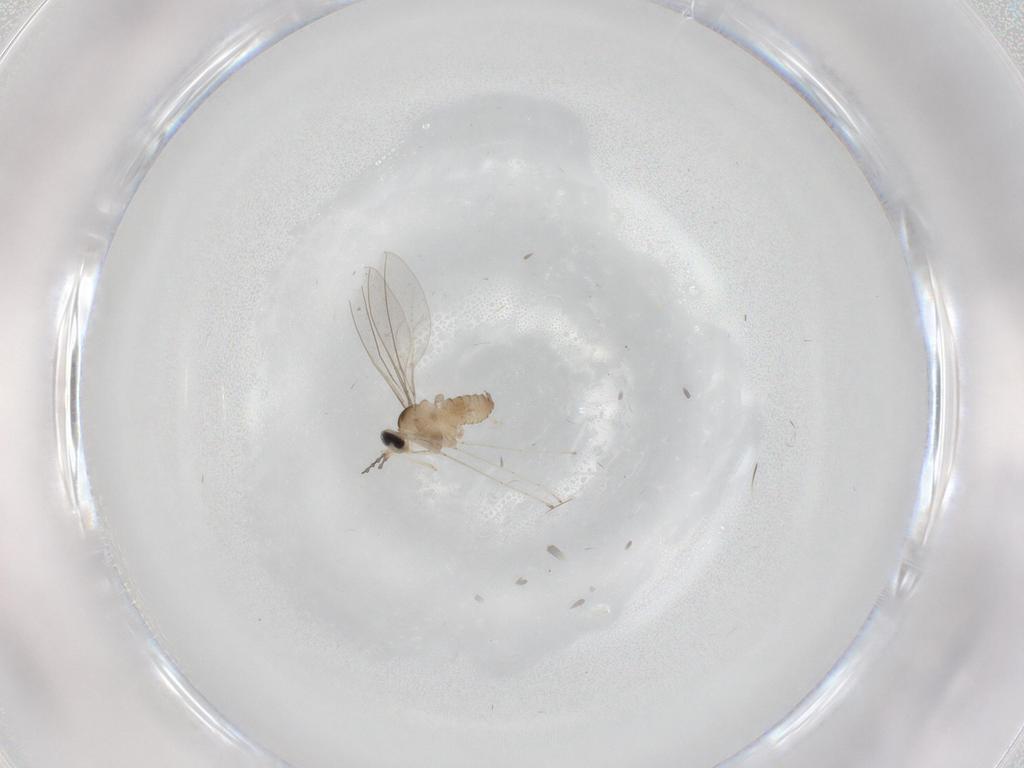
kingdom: Animalia
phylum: Arthropoda
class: Insecta
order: Diptera
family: Cecidomyiidae
